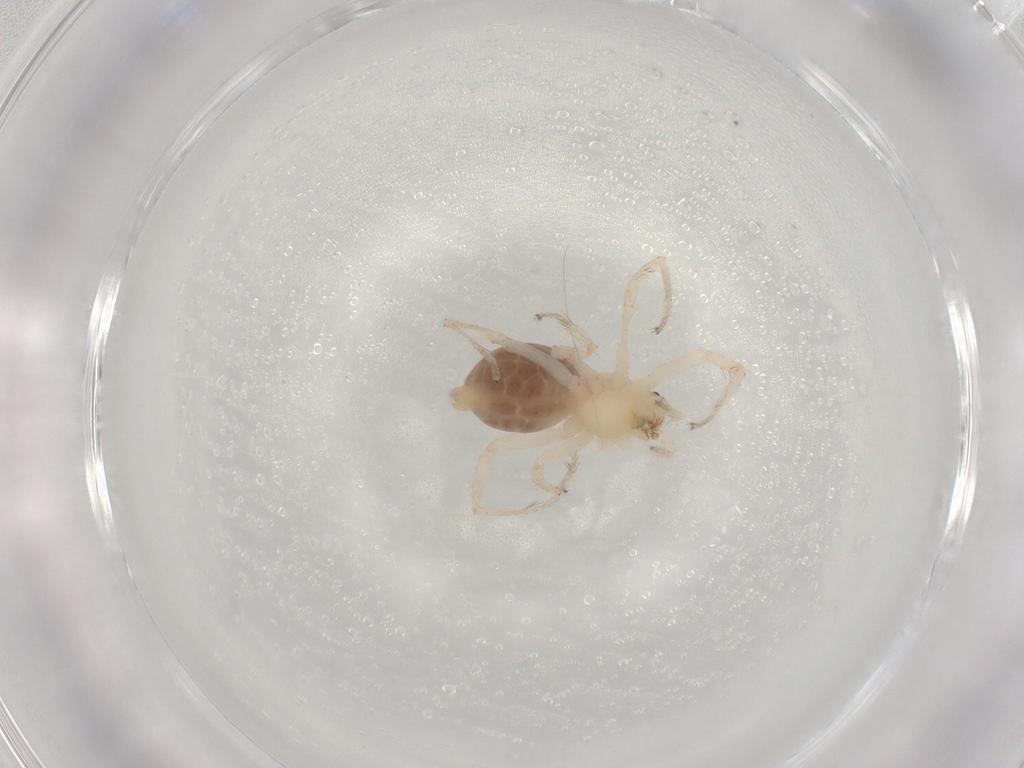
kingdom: Animalia
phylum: Arthropoda
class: Arachnida
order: Araneae
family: Anyphaenidae
